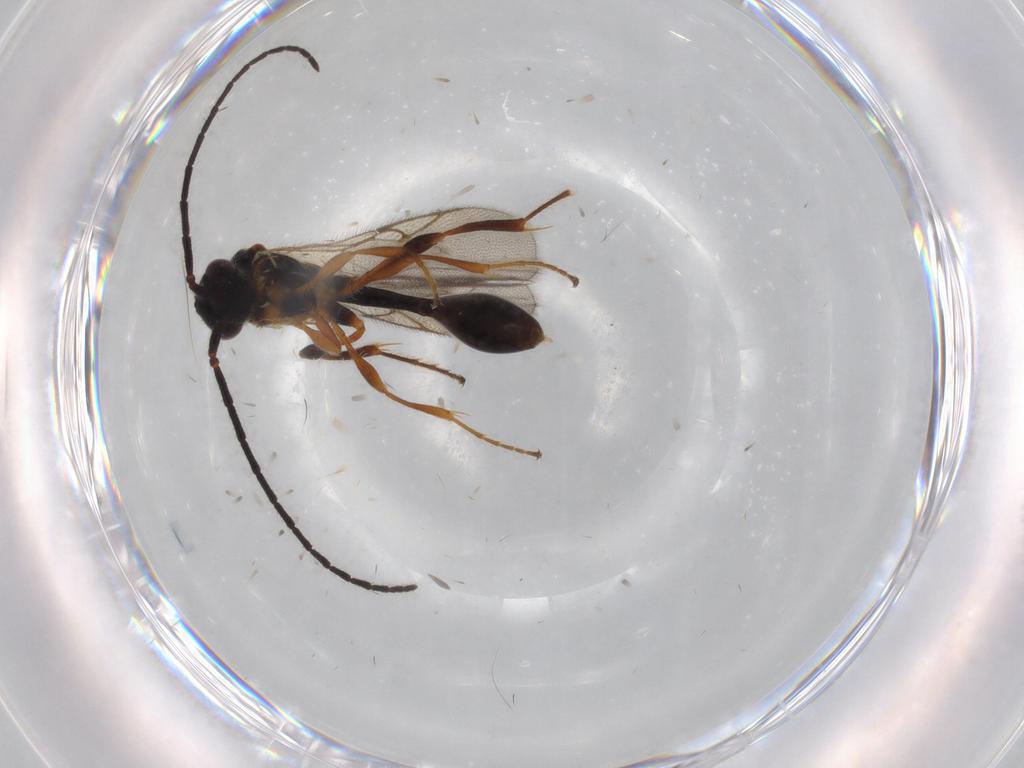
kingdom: Animalia
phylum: Arthropoda
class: Insecta
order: Hymenoptera
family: Diapriidae
